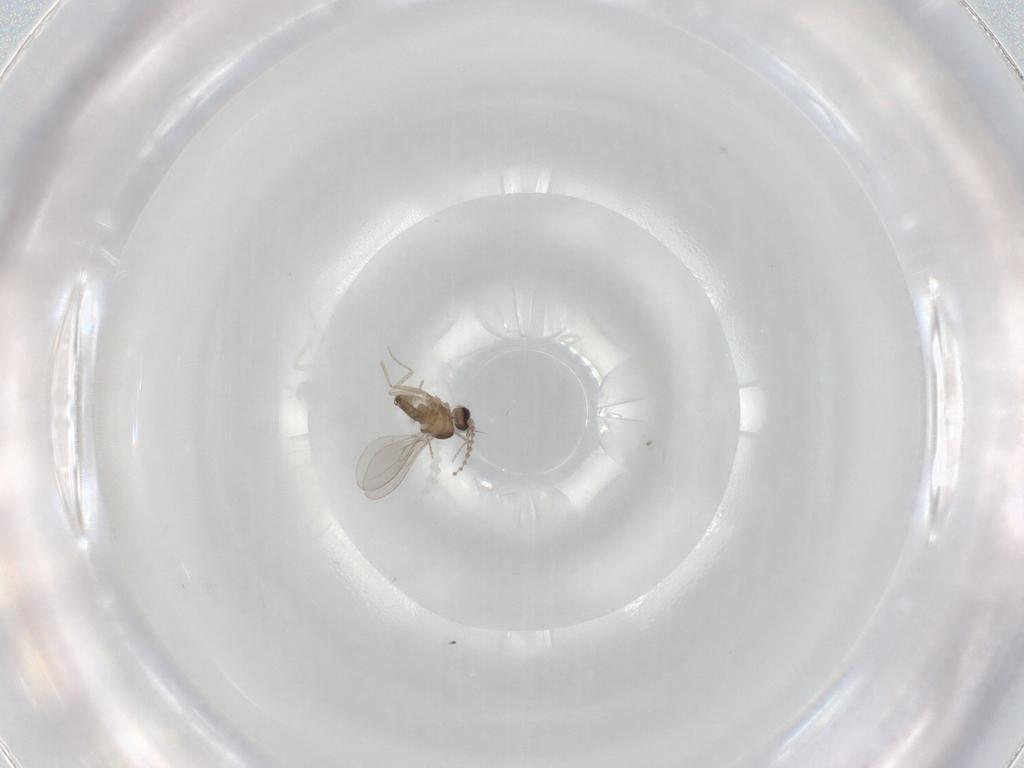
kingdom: Animalia
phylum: Arthropoda
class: Insecta
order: Diptera
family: Cecidomyiidae
